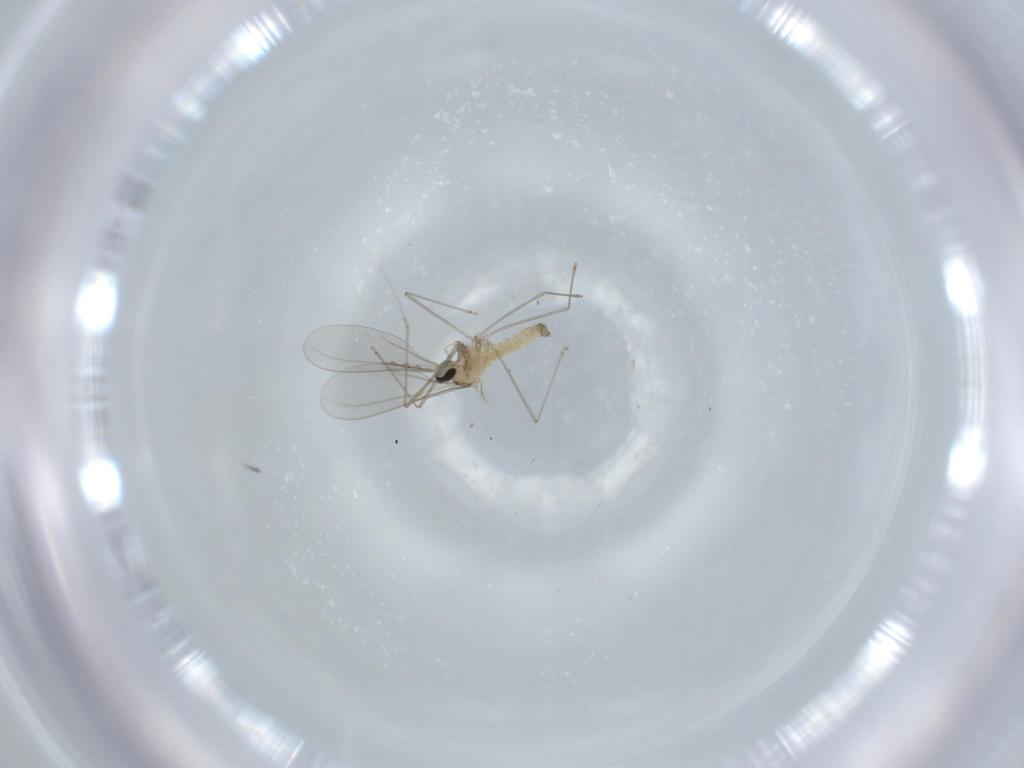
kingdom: Animalia
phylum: Arthropoda
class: Insecta
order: Diptera
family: Cecidomyiidae
